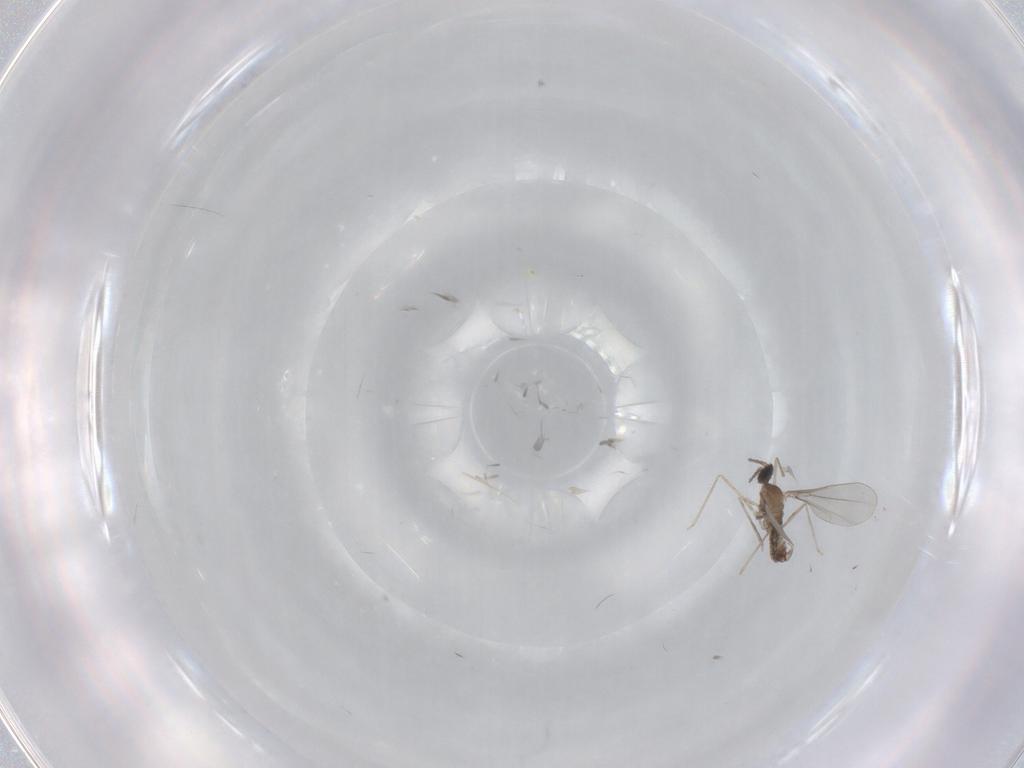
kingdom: Animalia
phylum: Arthropoda
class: Insecta
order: Diptera
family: Cecidomyiidae
